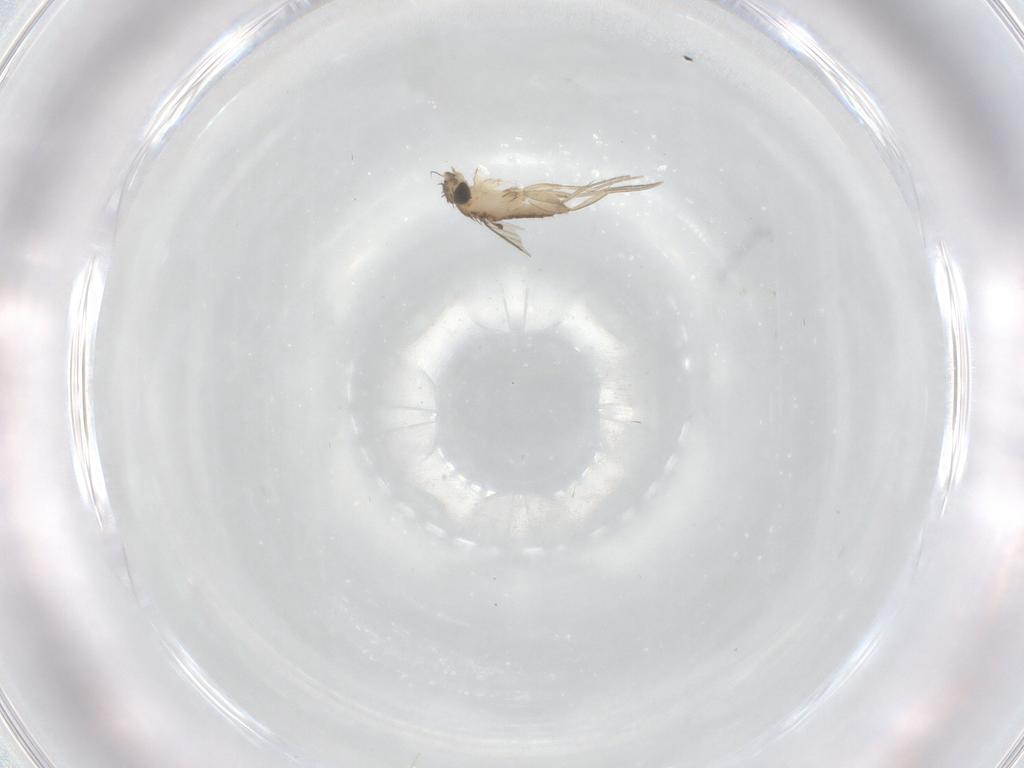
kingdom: Animalia
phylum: Arthropoda
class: Insecta
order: Diptera
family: Phoridae
